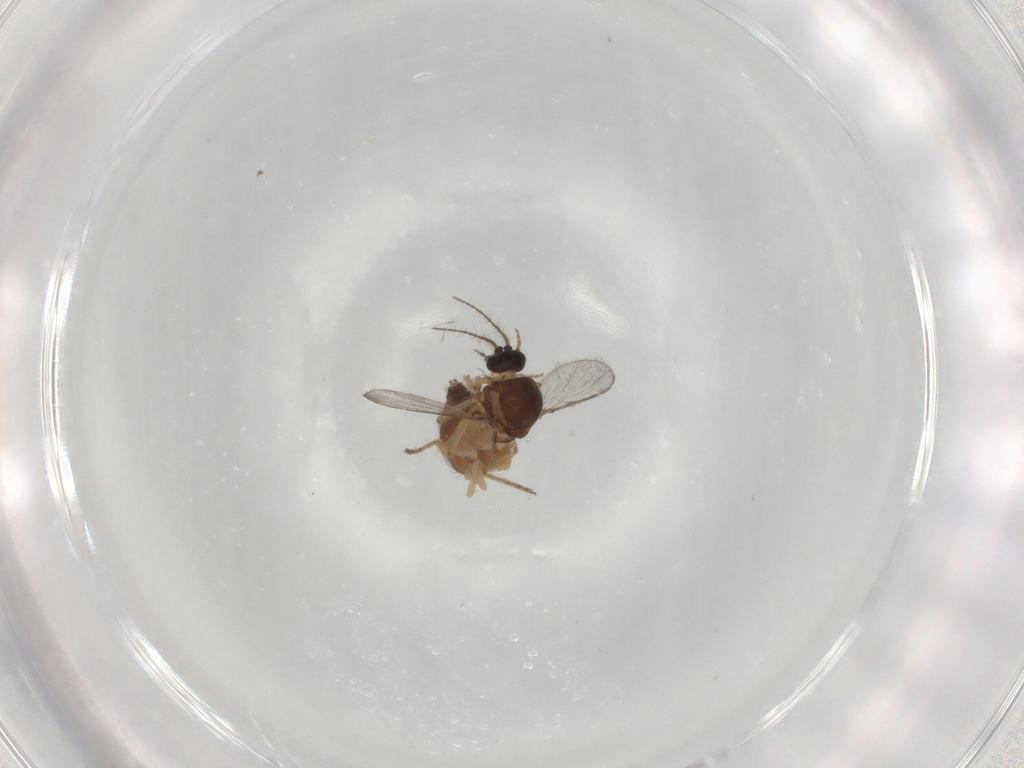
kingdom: Animalia
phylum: Arthropoda
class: Insecta
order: Diptera
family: Ceratopogonidae
